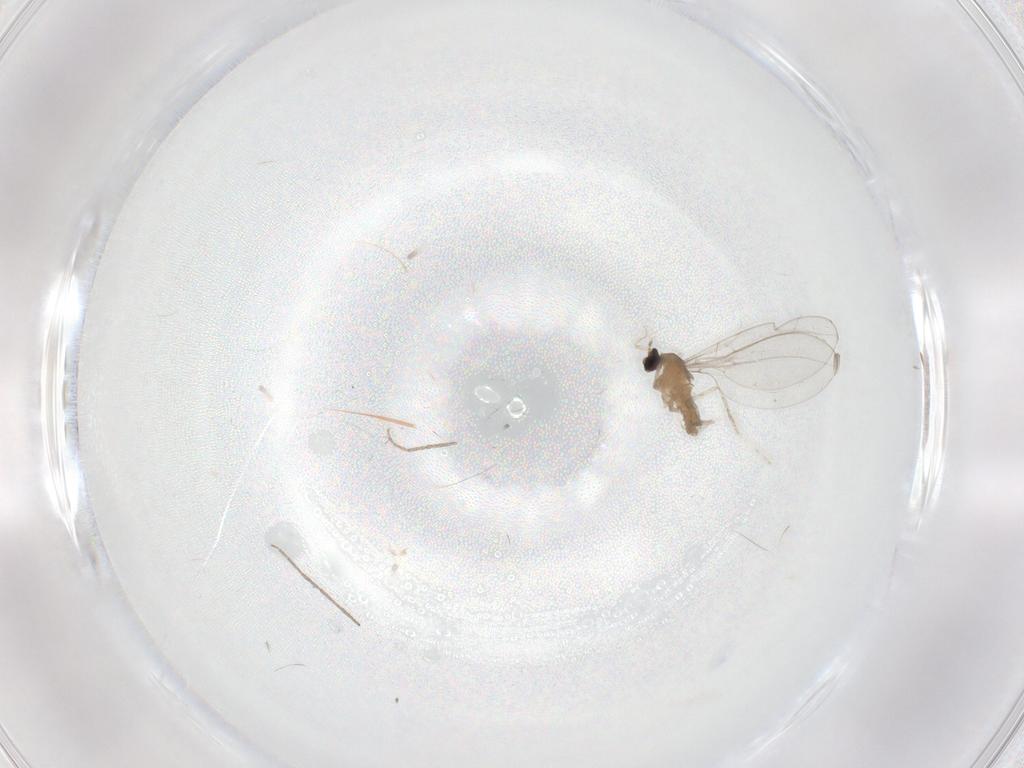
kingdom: Animalia
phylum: Arthropoda
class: Insecta
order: Diptera
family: Cecidomyiidae
